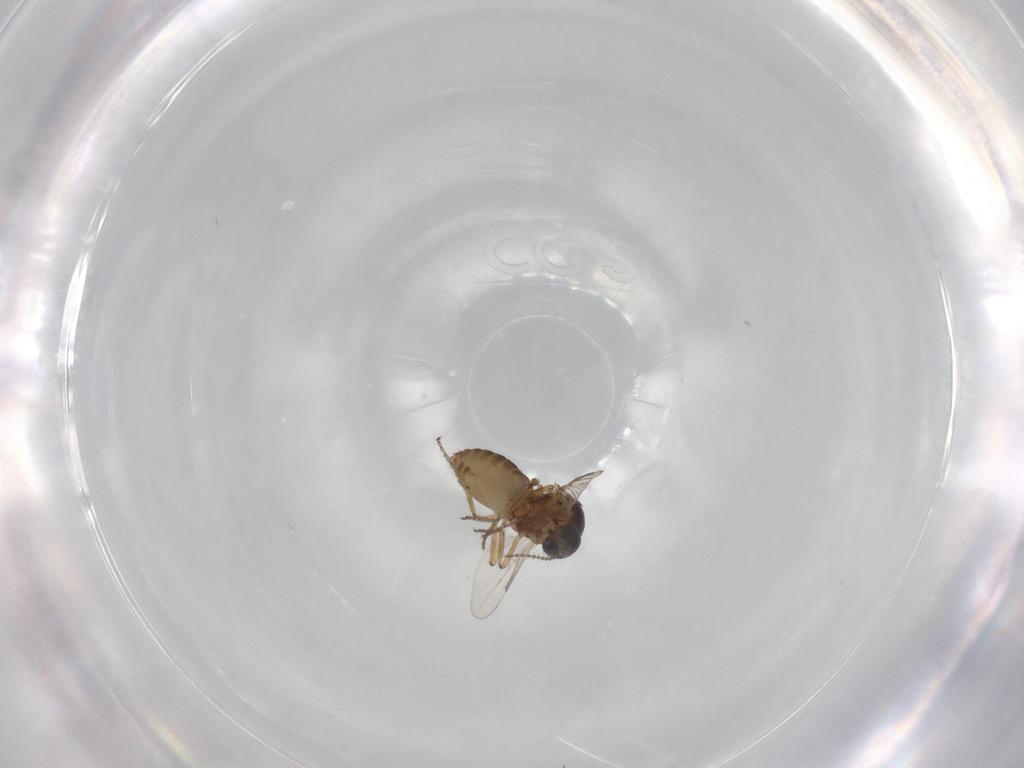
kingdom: Animalia
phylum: Arthropoda
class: Insecta
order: Diptera
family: Ceratopogonidae
